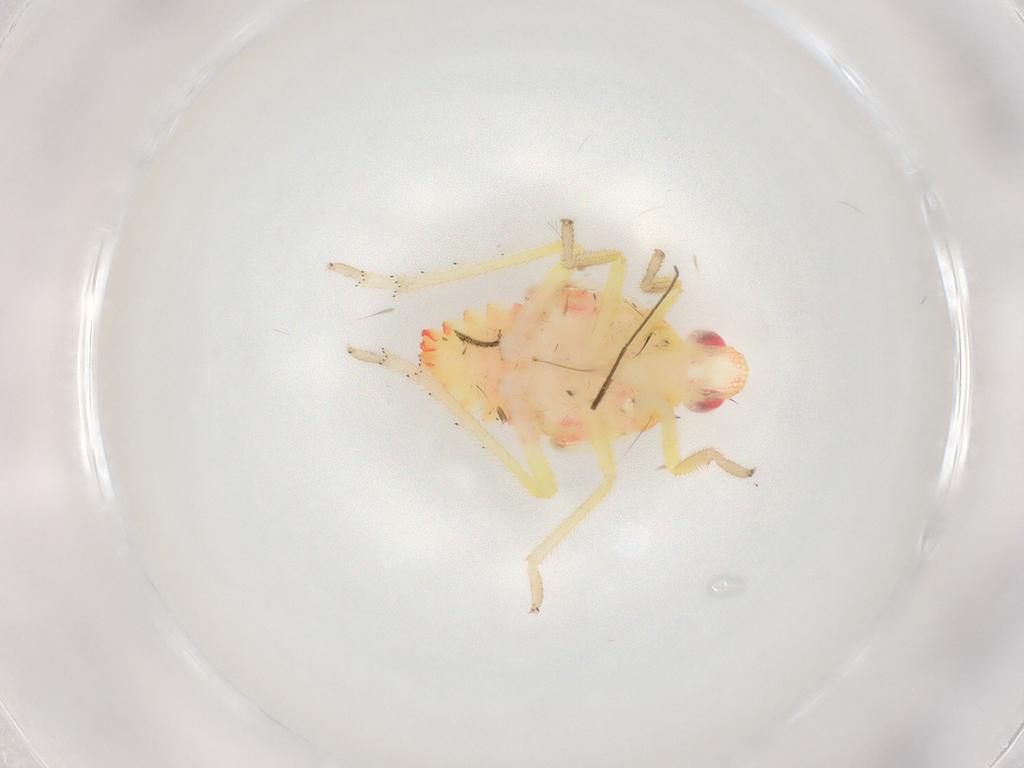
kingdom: Animalia
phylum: Arthropoda
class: Insecta
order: Hemiptera
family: Tropiduchidae
